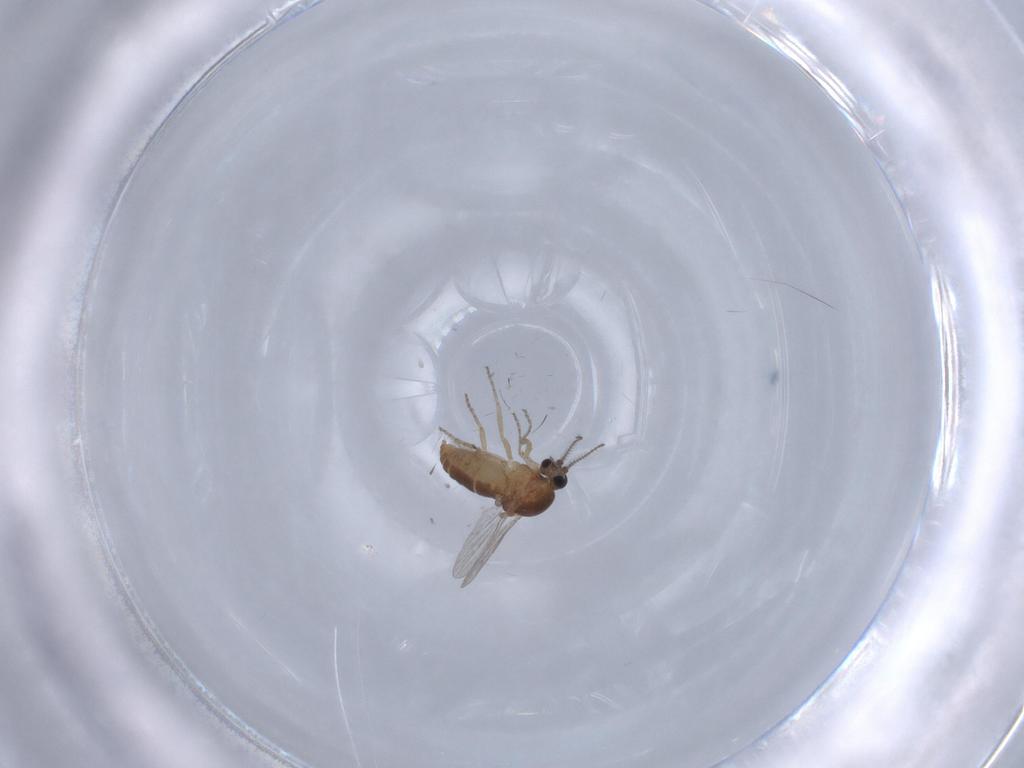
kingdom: Animalia
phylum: Arthropoda
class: Insecta
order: Diptera
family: Ceratopogonidae
